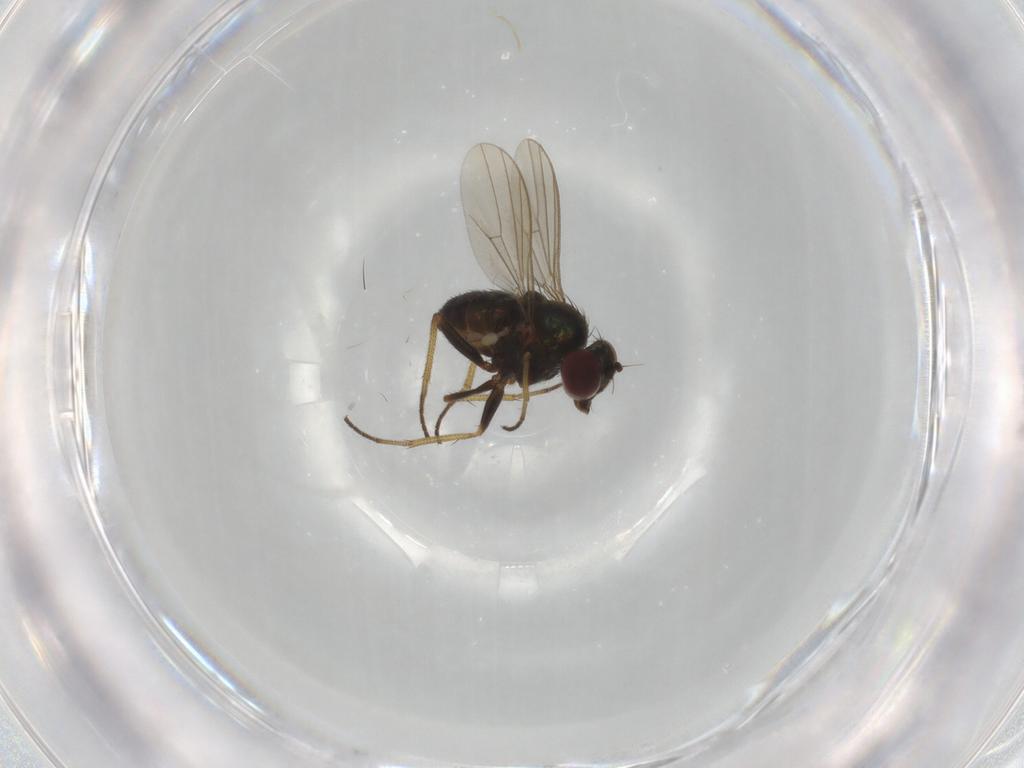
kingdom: Animalia
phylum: Arthropoda
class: Insecta
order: Diptera
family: Dolichopodidae
